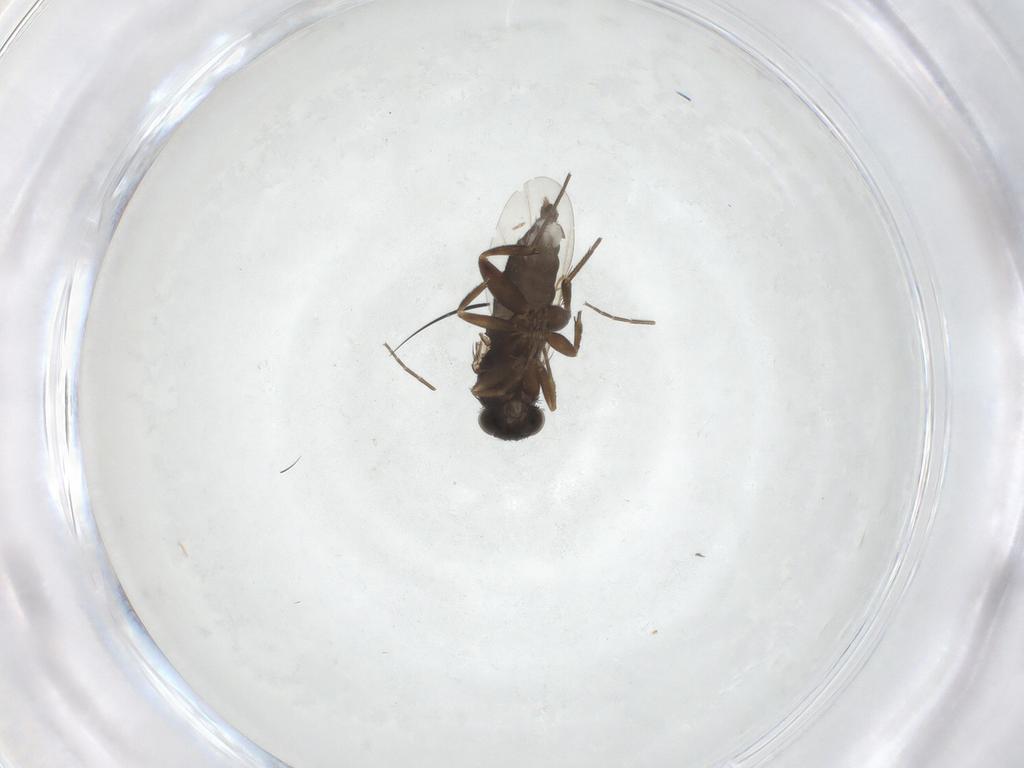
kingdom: Animalia
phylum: Arthropoda
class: Insecta
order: Diptera
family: Phoridae
